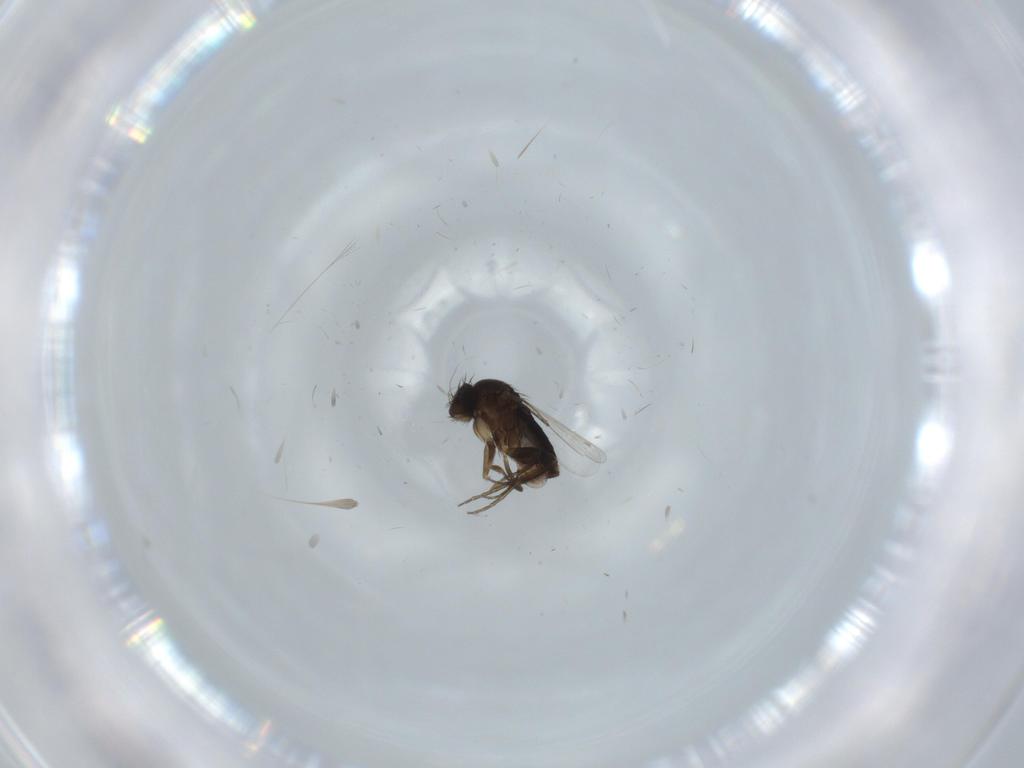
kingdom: Animalia
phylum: Arthropoda
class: Insecta
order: Diptera
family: Phoridae
